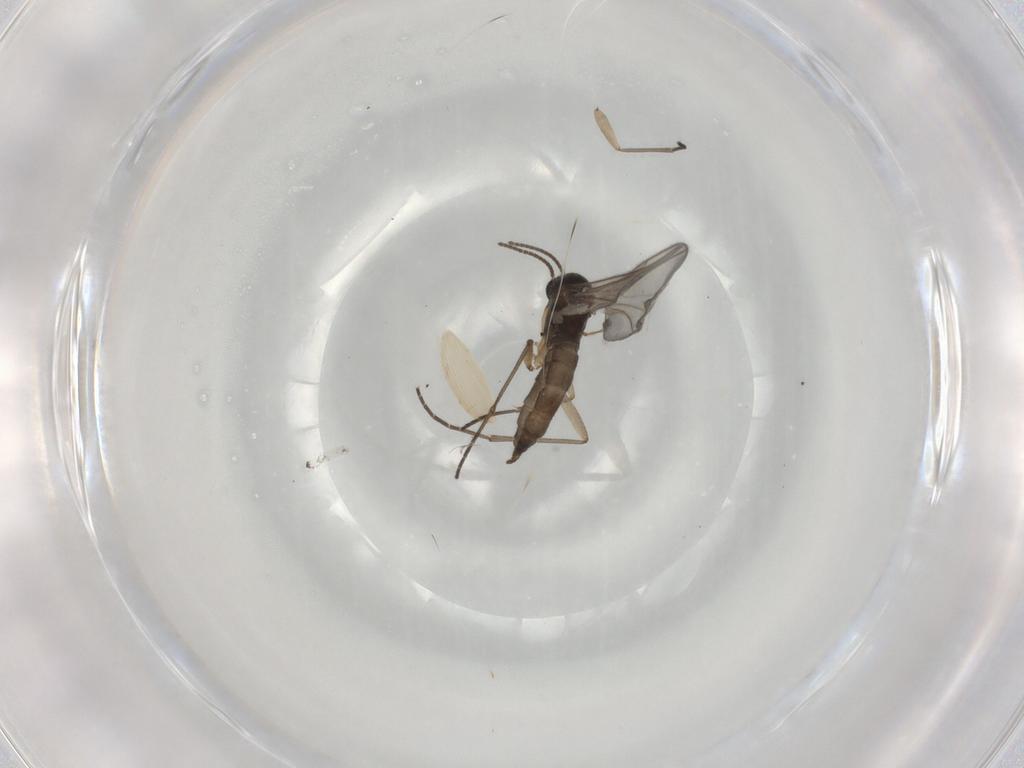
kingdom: Animalia
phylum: Arthropoda
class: Insecta
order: Diptera
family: Sciaridae
